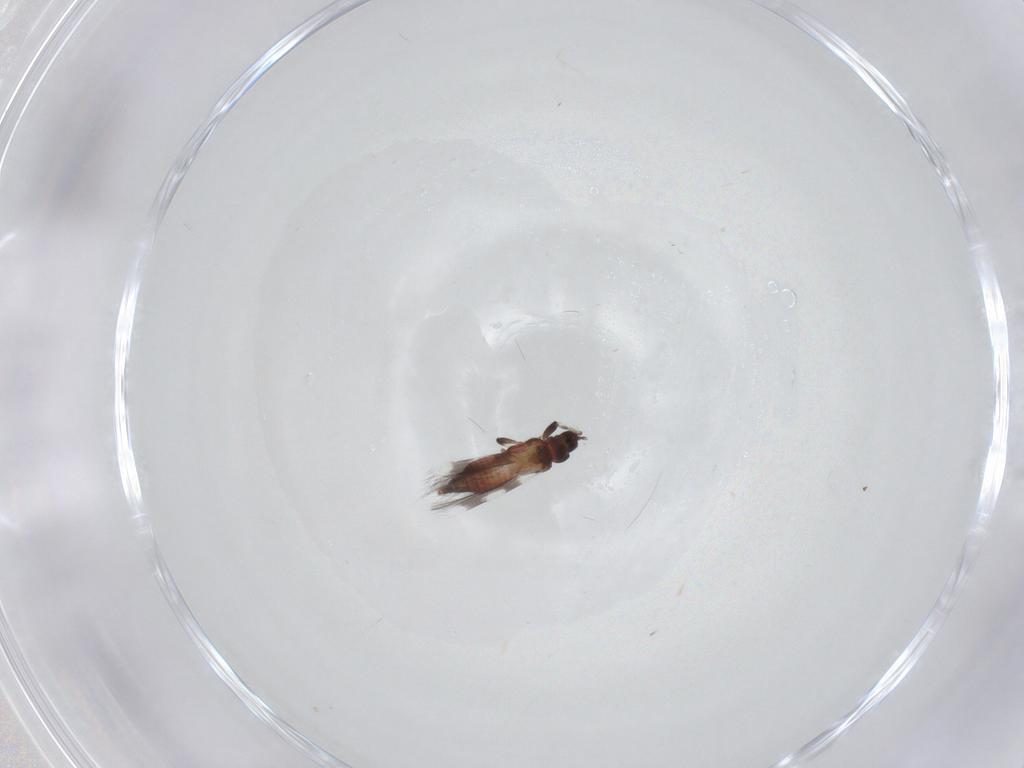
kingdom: Animalia
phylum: Arthropoda
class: Insecta
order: Thysanoptera
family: Aeolothripidae
